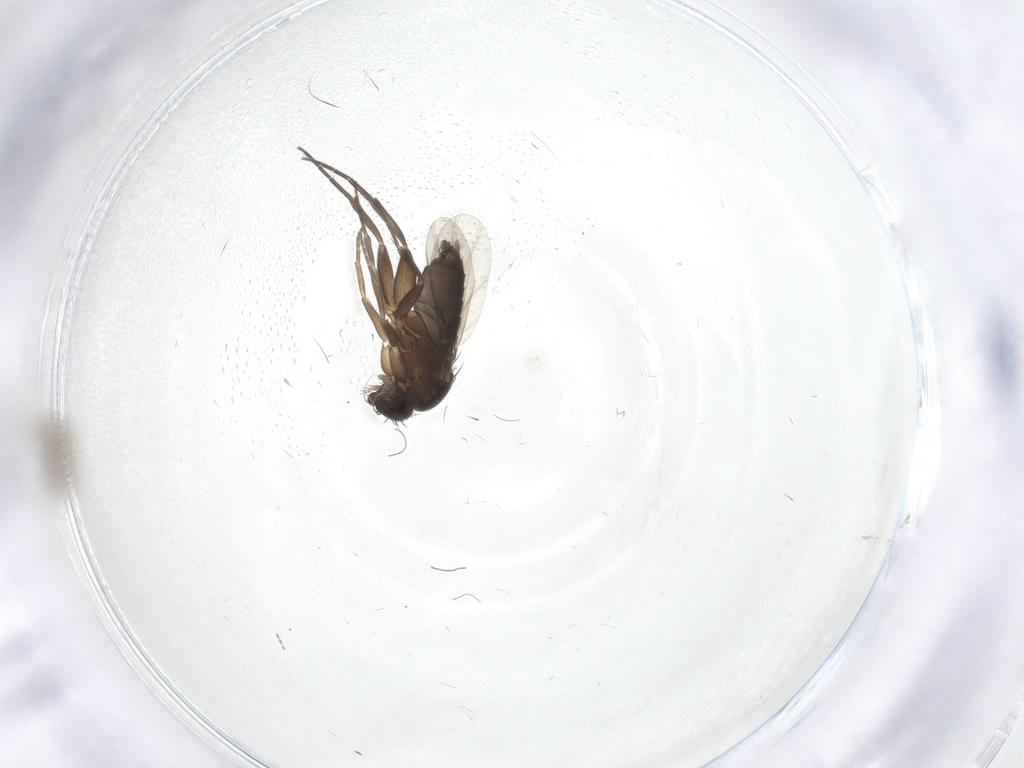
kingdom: Animalia
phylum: Arthropoda
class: Insecta
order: Diptera
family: Phoridae
